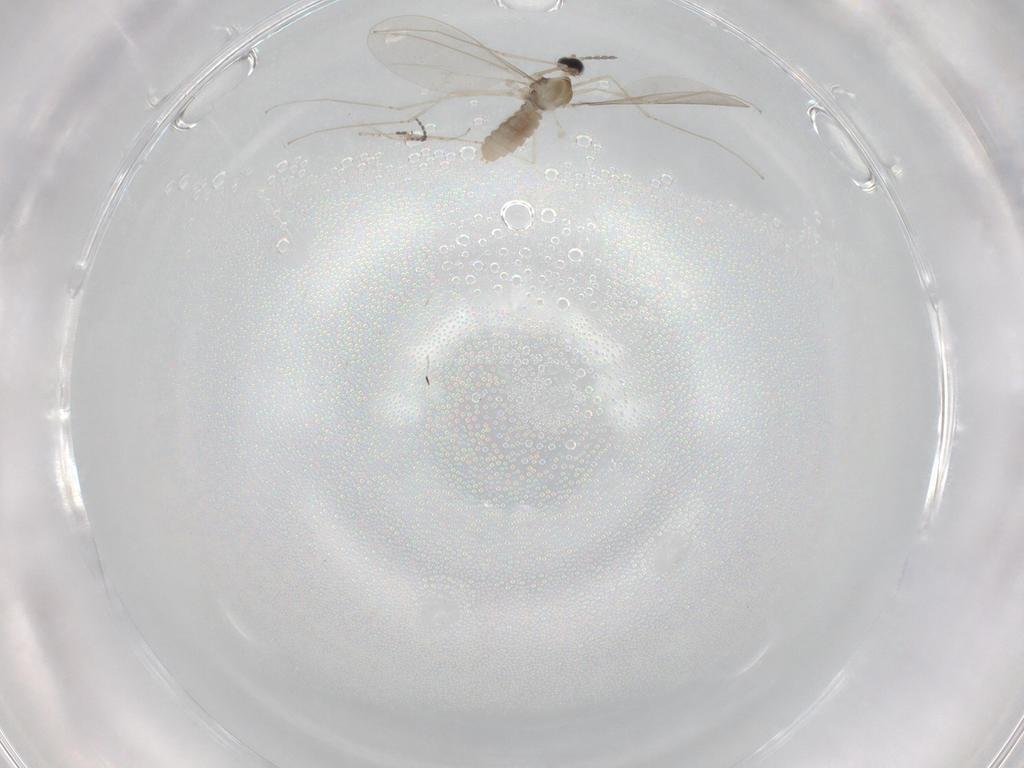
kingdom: Animalia
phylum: Arthropoda
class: Insecta
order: Diptera
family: Cecidomyiidae
